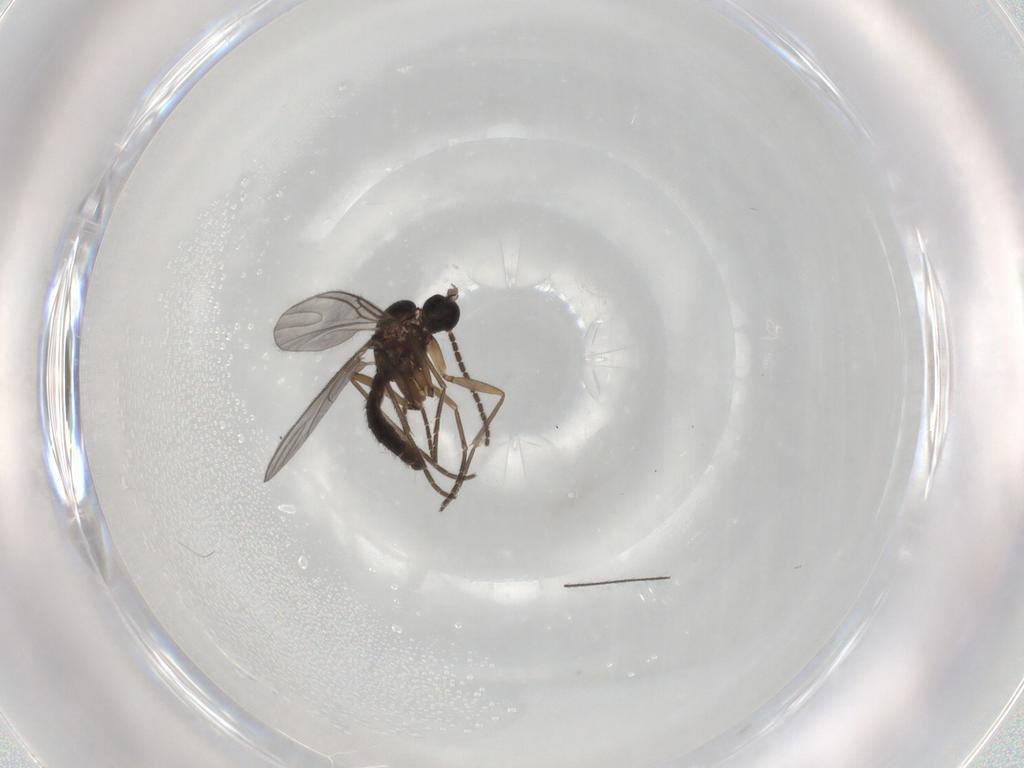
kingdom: Animalia
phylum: Arthropoda
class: Insecta
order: Diptera
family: Sciaridae
